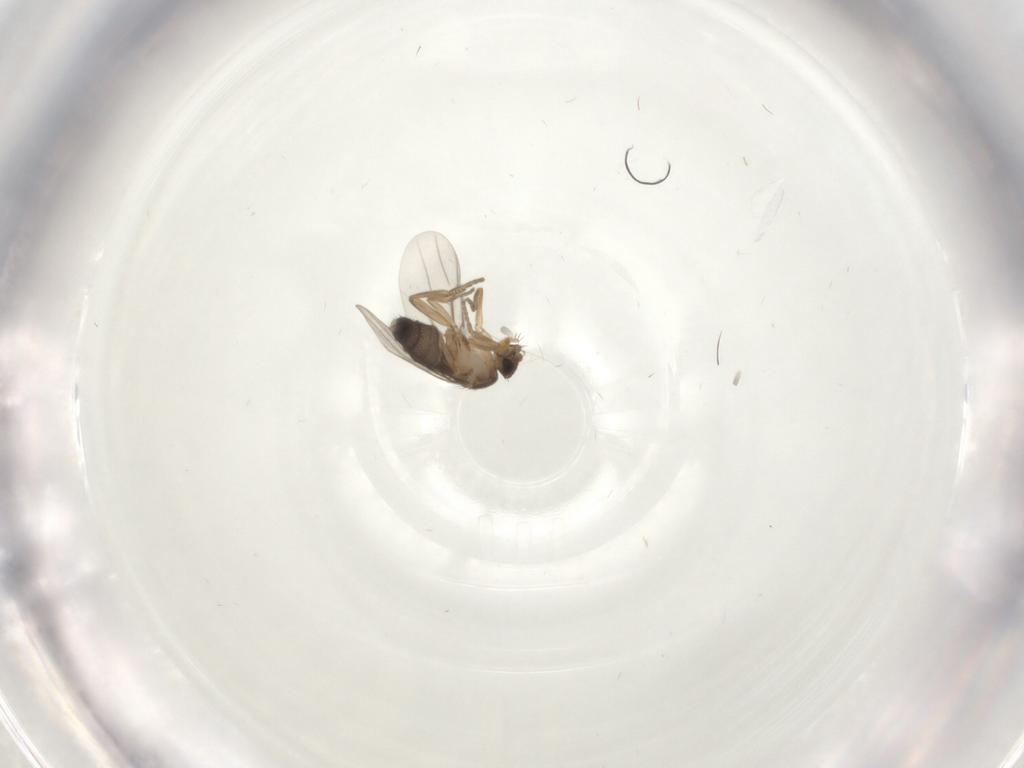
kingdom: Animalia
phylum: Arthropoda
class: Insecta
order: Diptera
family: Phoridae
